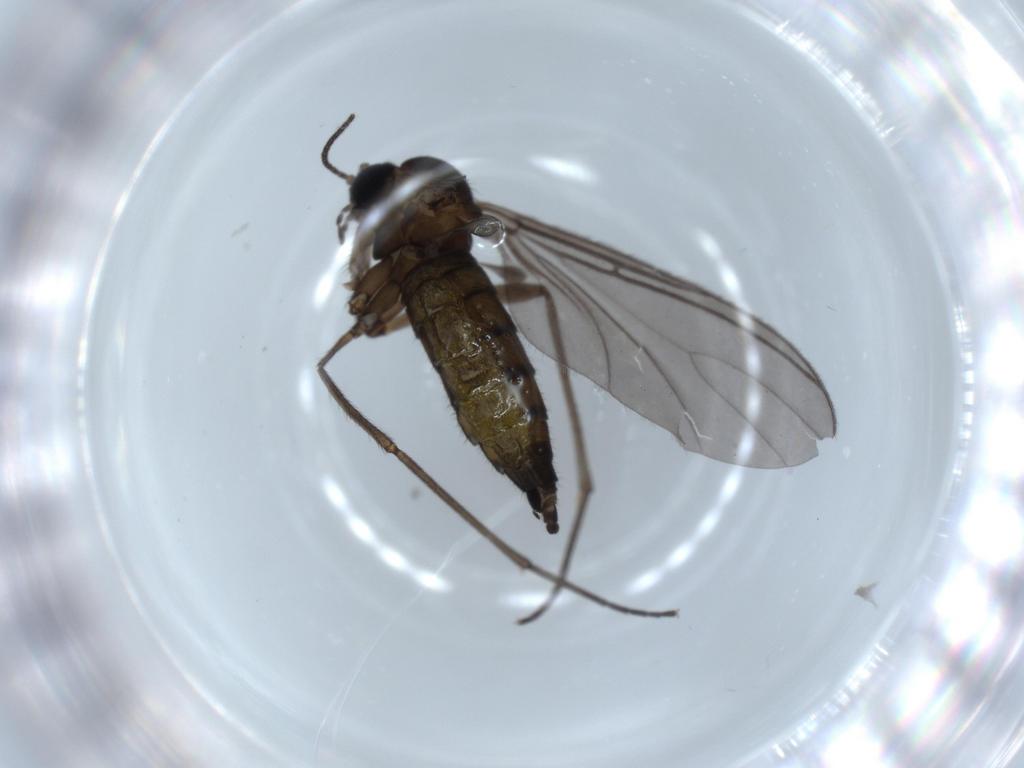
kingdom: Animalia
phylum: Arthropoda
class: Insecta
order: Diptera
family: Sciaridae
